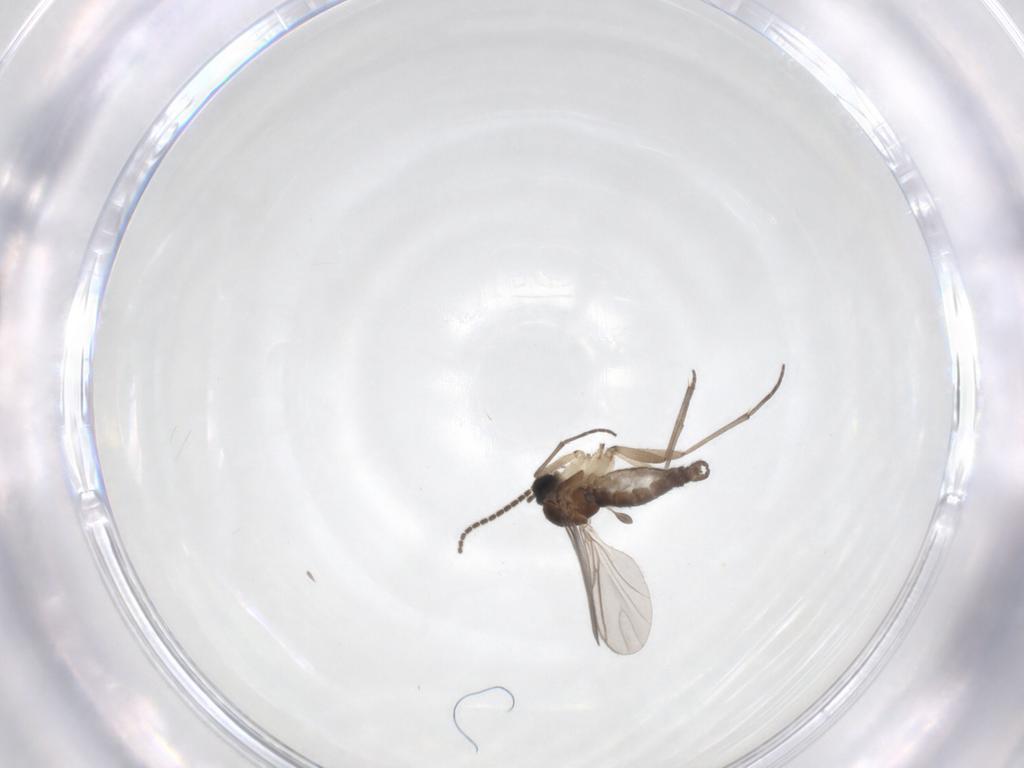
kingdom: Animalia
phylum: Arthropoda
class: Insecta
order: Diptera
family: Sciaridae
